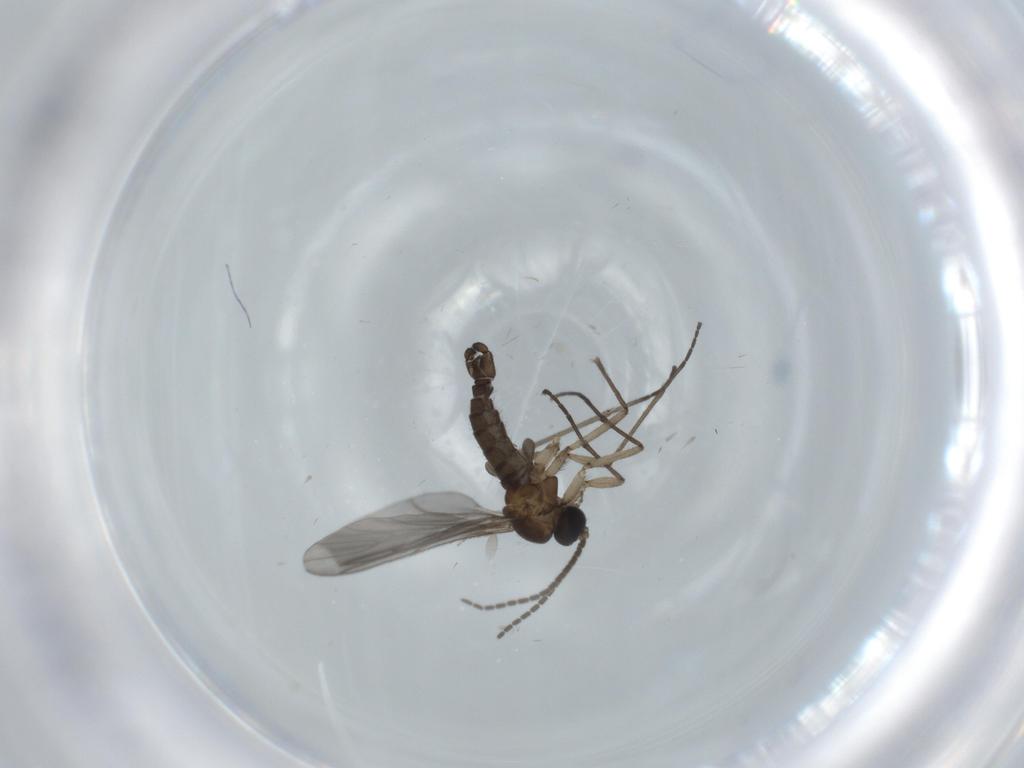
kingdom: Animalia
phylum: Arthropoda
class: Insecta
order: Diptera
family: Sciaridae
